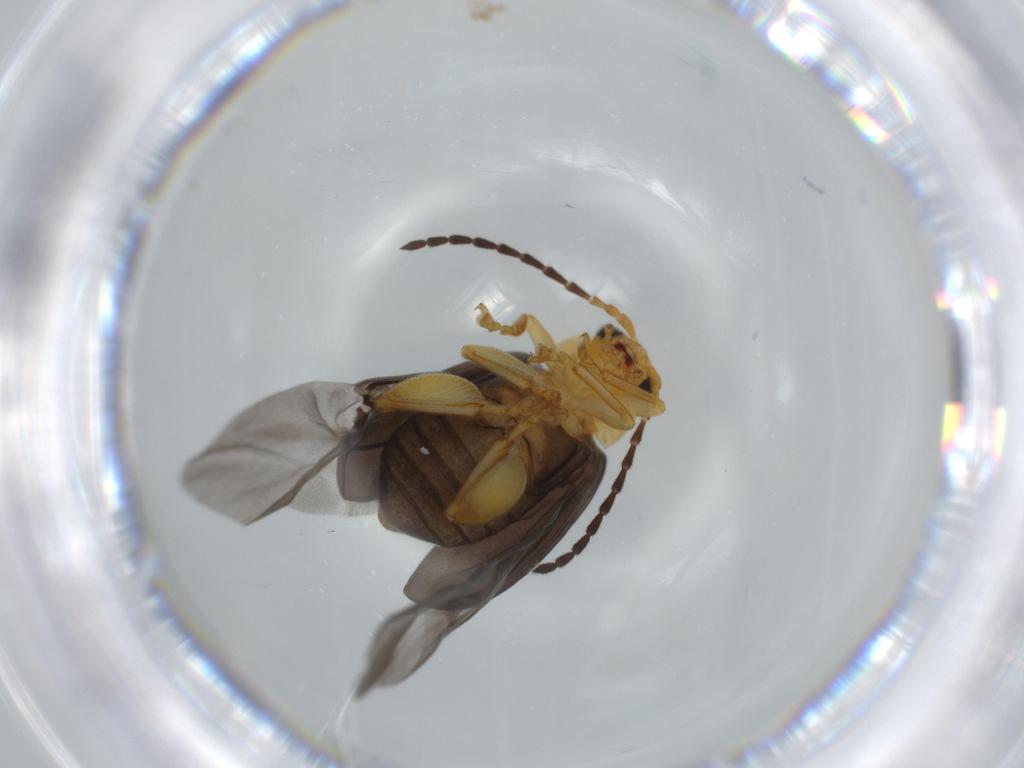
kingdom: Animalia
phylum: Arthropoda
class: Insecta
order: Coleoptera
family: Chrysomelidae
